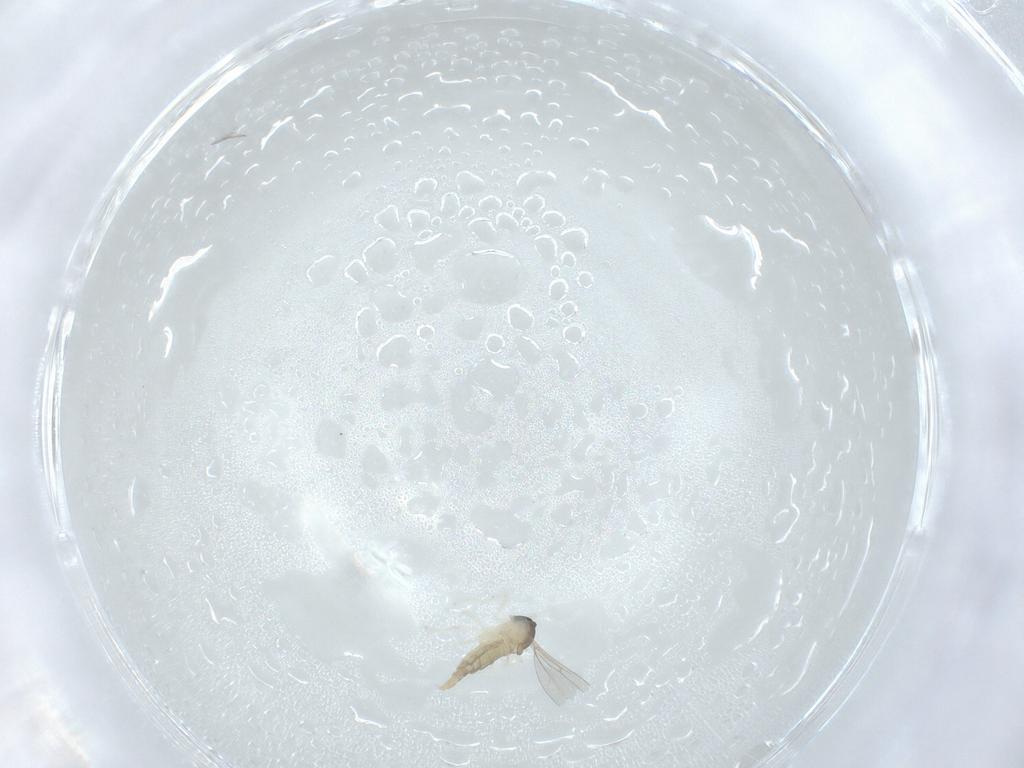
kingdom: Animalia
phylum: Arthropoda
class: Insecta
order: Diptera
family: Cecidomyiidae
